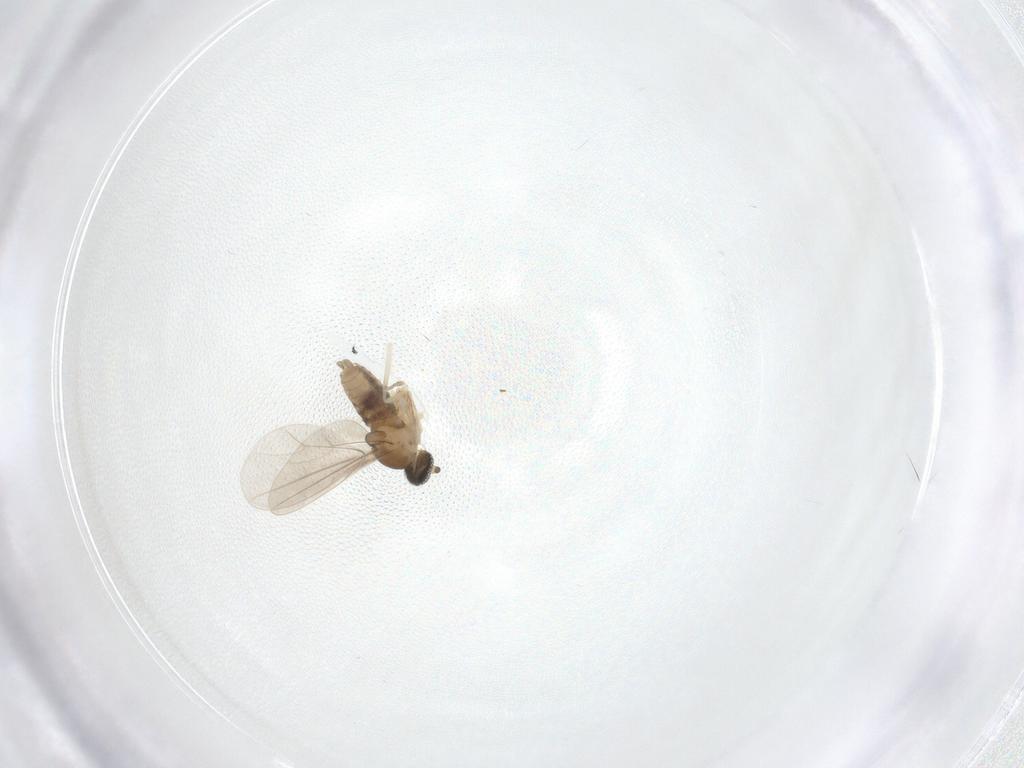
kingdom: Animalia
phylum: Arthropoda
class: Insecta
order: Diptera
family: Cecidomyiidae
